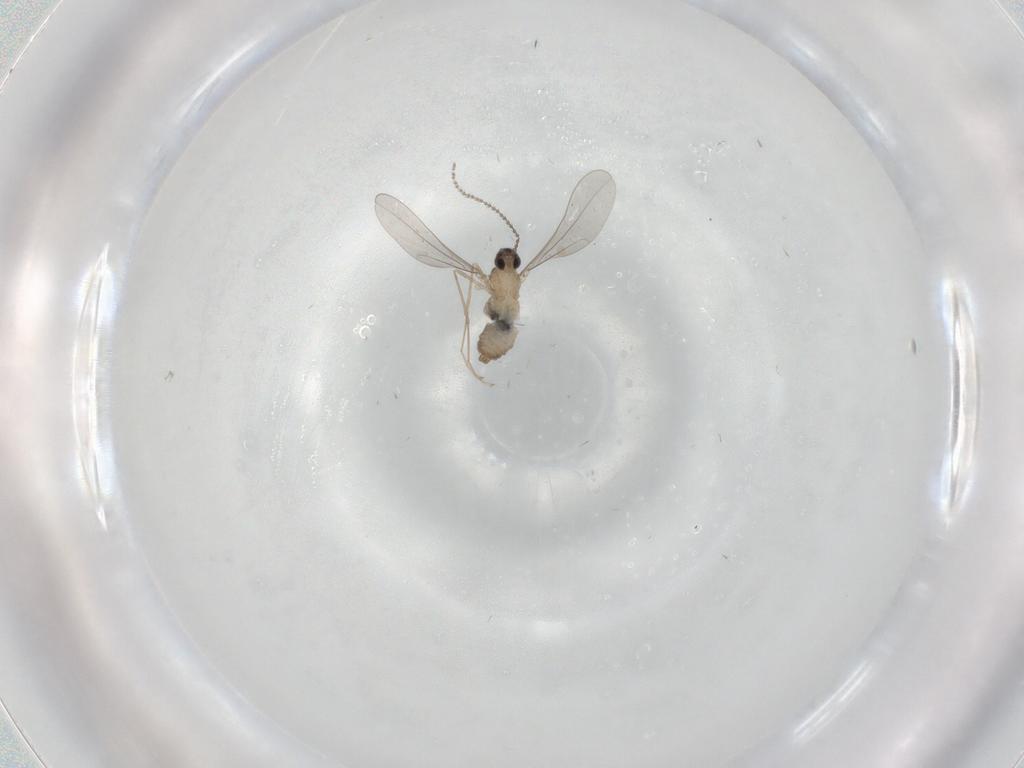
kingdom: Animalia
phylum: Arthropoda
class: Insecta
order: Diptera
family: Cecidomyiidae
